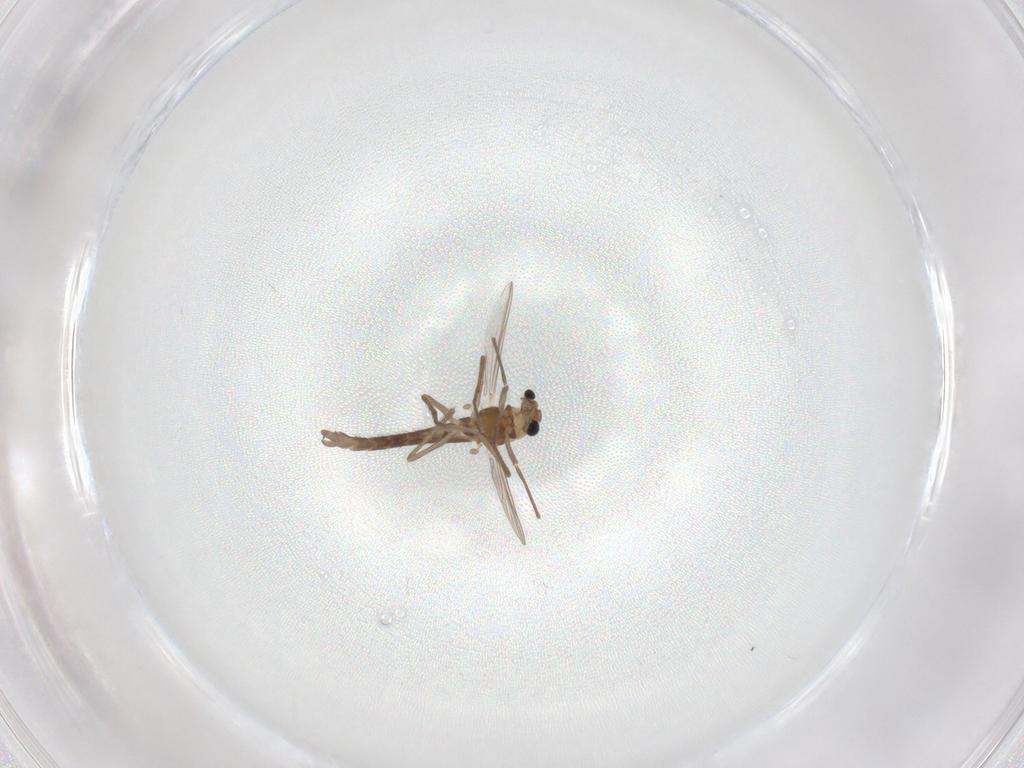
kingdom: Animalia
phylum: Arthropoda
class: Insecta
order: Diptera
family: Chironomidae
